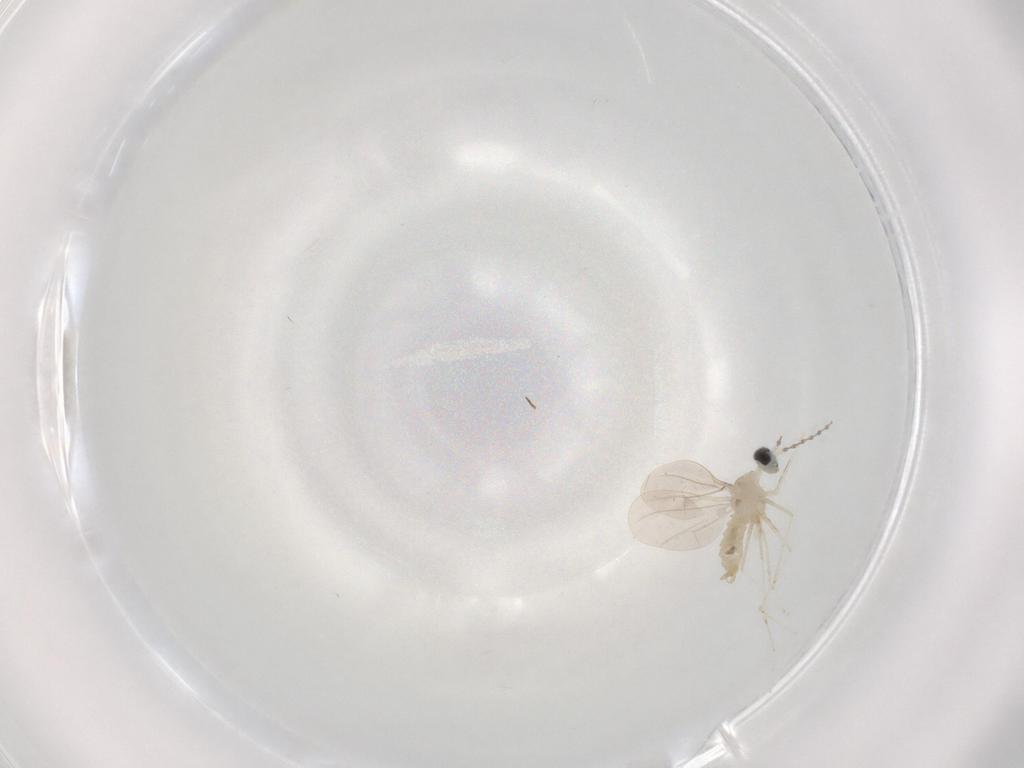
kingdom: Animalia
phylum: Arthropoda
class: Insecta
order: Diptera
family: Cecidomyiidae
